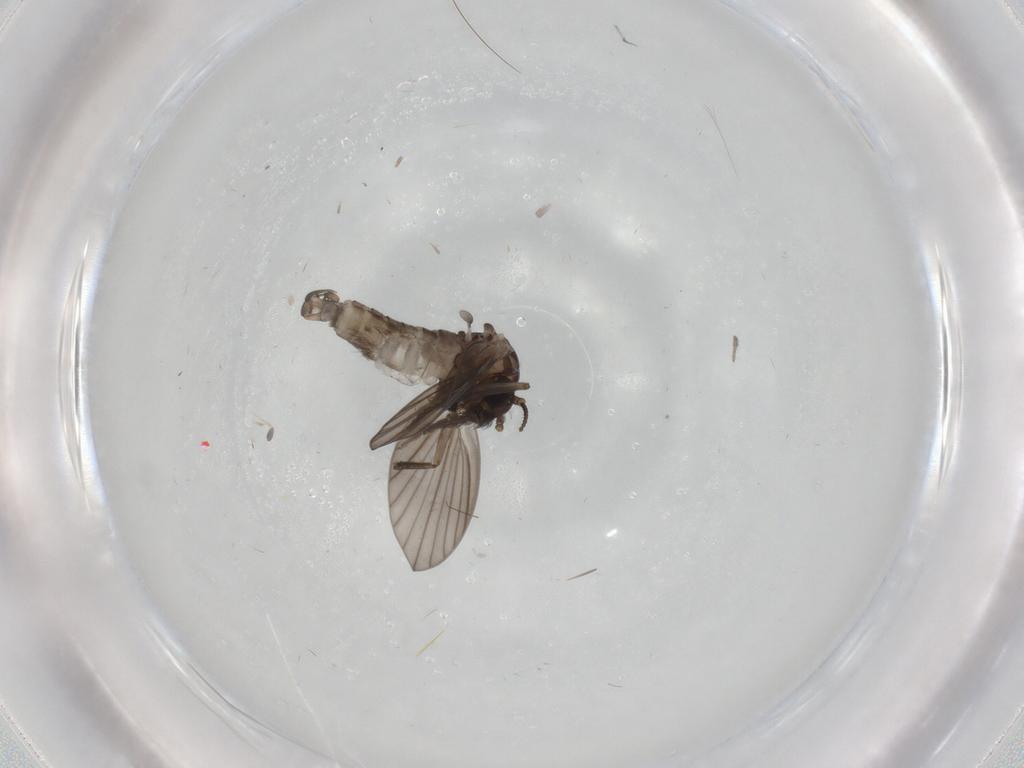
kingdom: Animalia
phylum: Arthropoda
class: Insecta
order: Diptera
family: Psychodidae
